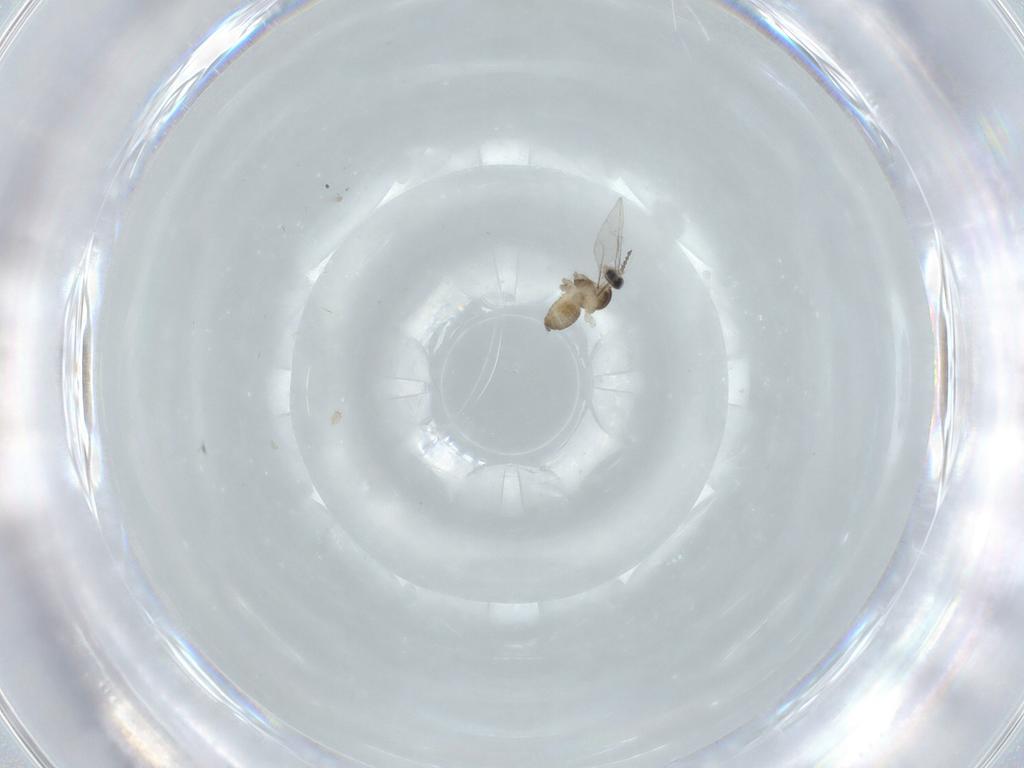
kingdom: Animalia
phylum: Arthropoda
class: Insecta
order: Diptera
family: Cecidomyiidae
